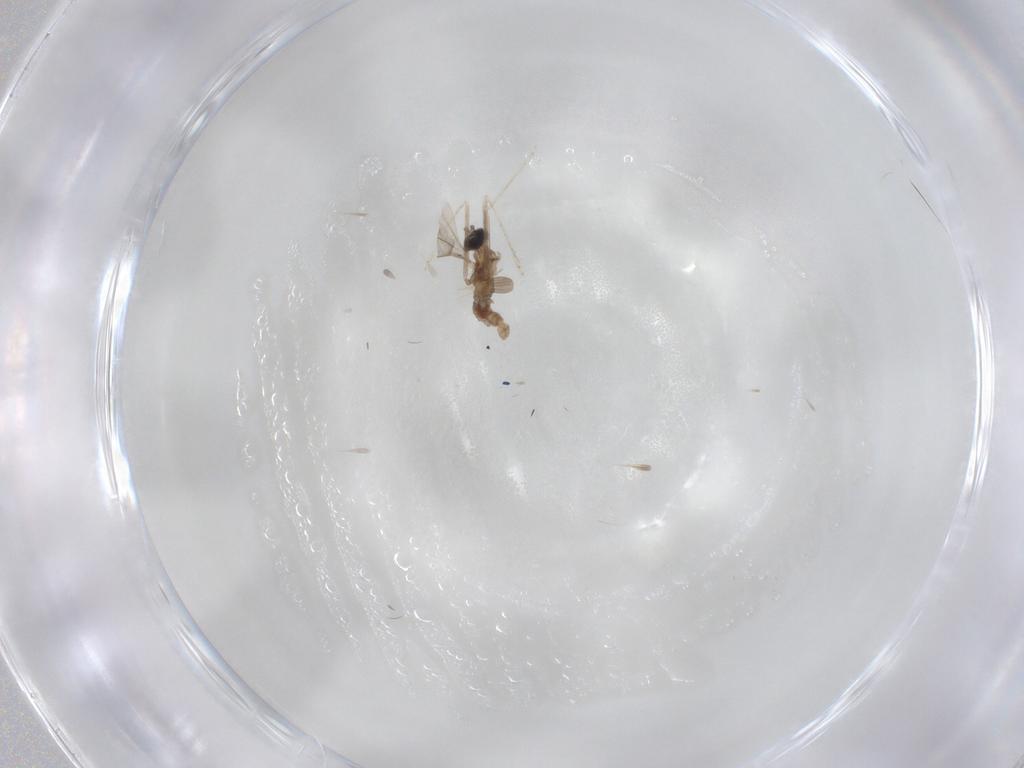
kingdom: Animalia
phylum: Arthropoda
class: Insecta
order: Diptera
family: Cecidomyiidae
